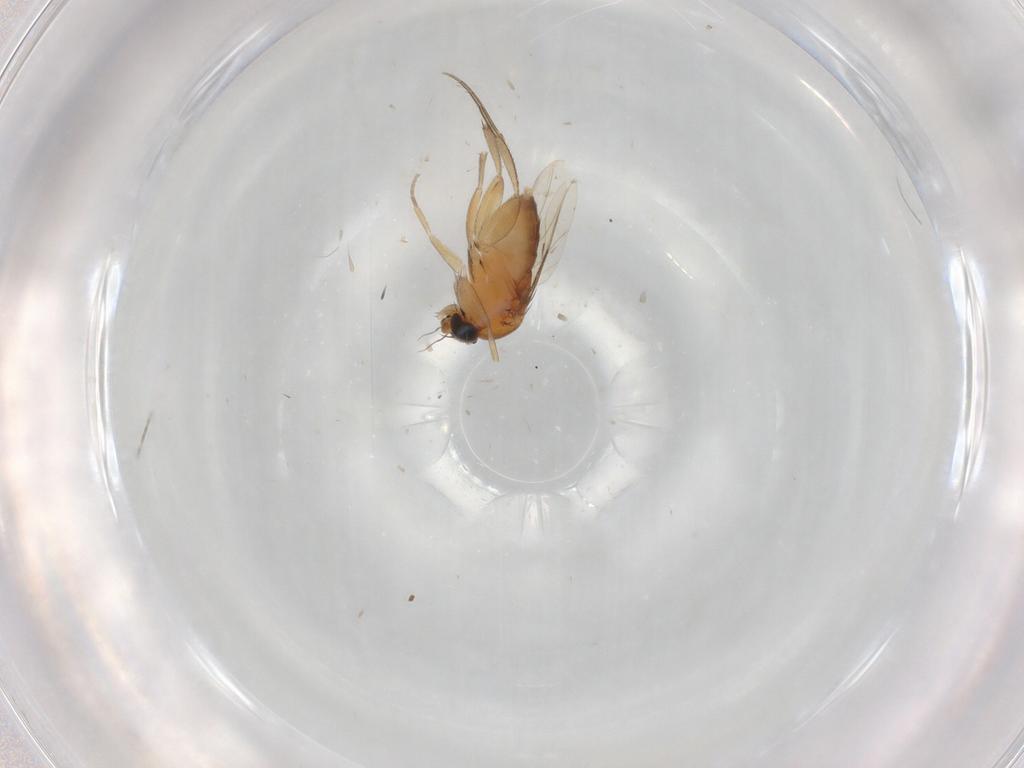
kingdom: Animalia
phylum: Arthropoda
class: Insecta
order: Diptera
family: Phoridae
